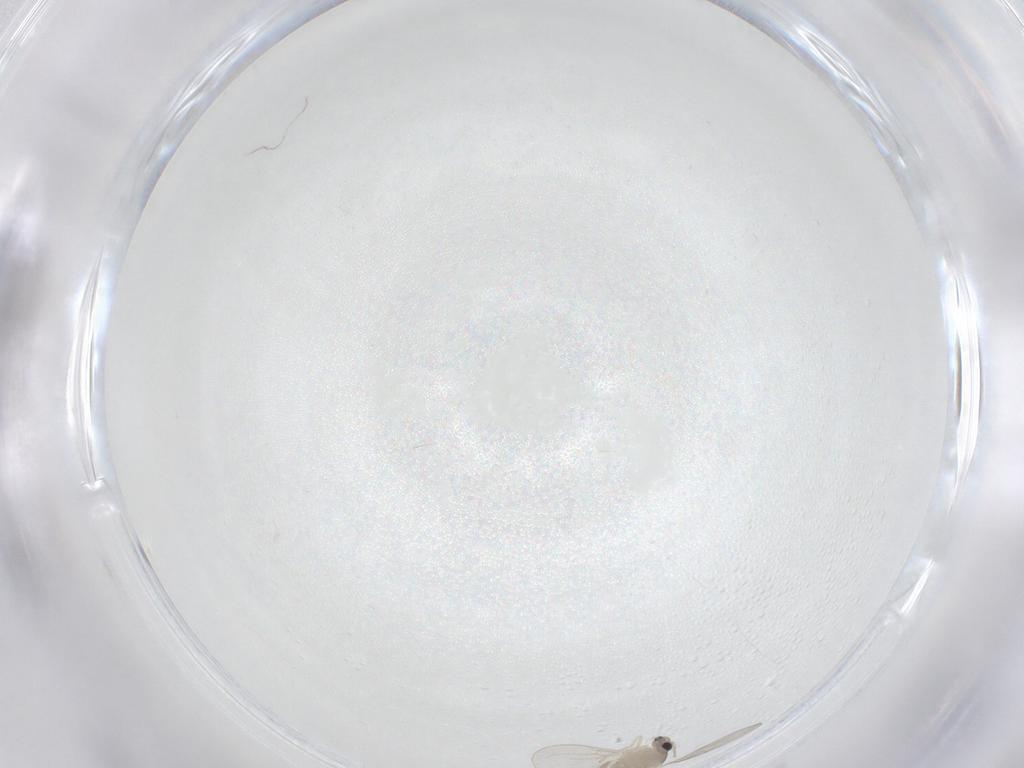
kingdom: Animalia
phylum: Arthropoda
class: Insecta
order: Diptera
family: Cecidomyiidae
